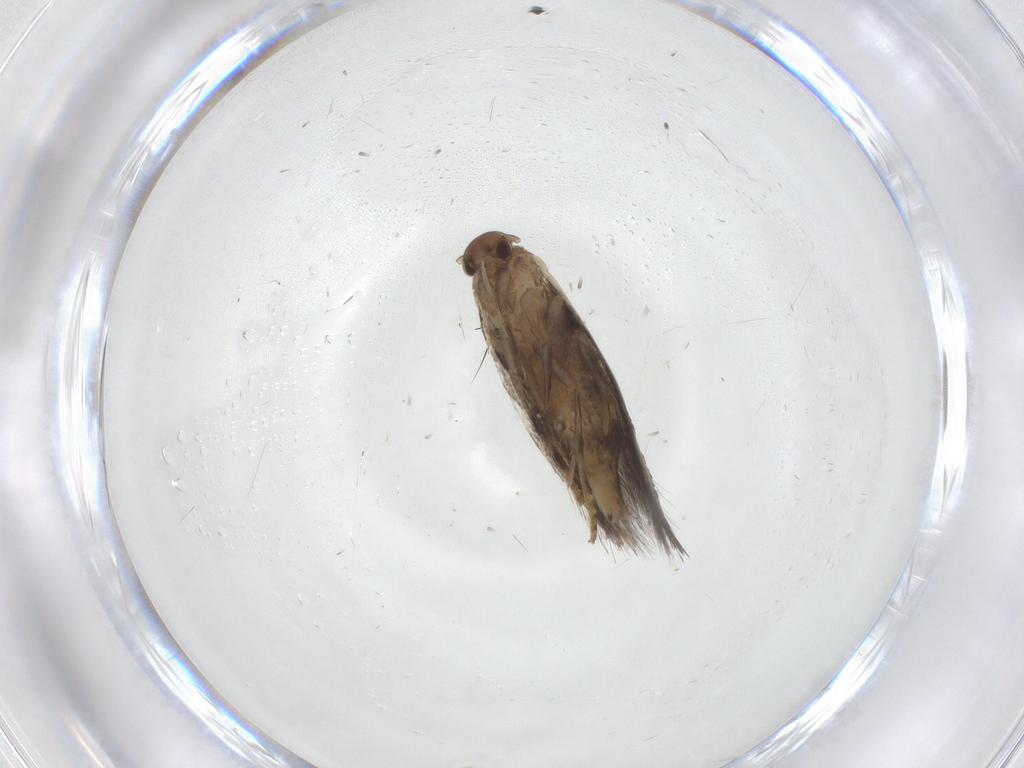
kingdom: Animalia
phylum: Arthropoda
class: Insecta
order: Lepidoptera
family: Elachistidae
